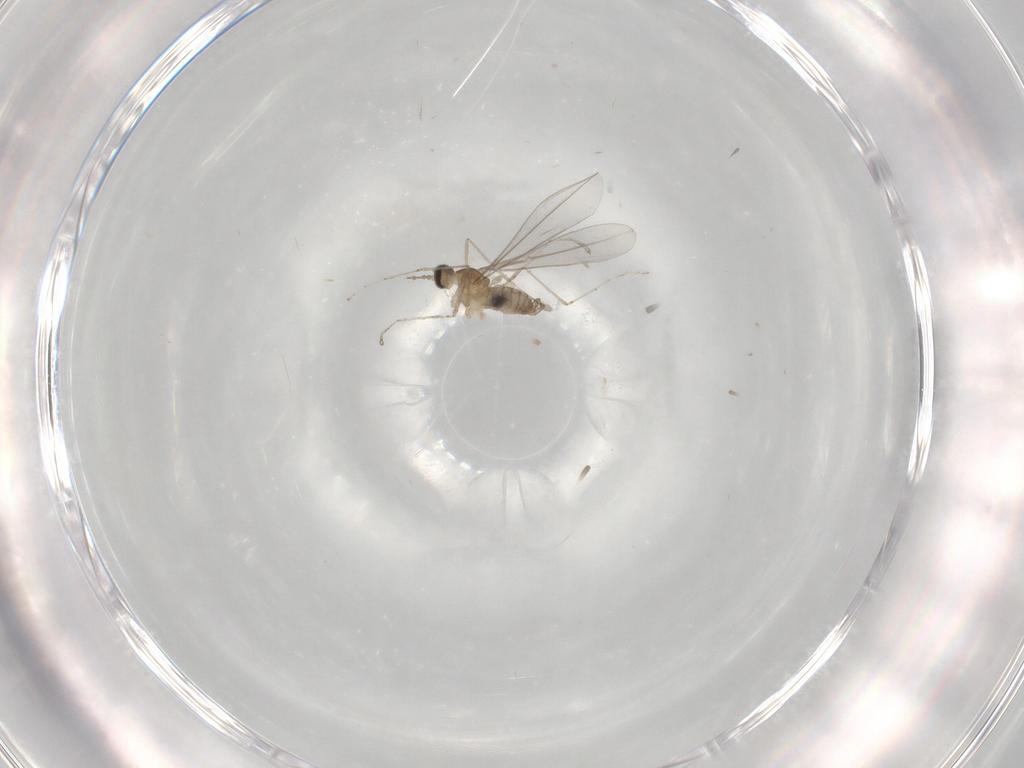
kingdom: Animalia
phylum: Arthropoda
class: Insecta
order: Diptera
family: Cecidomyiidae
